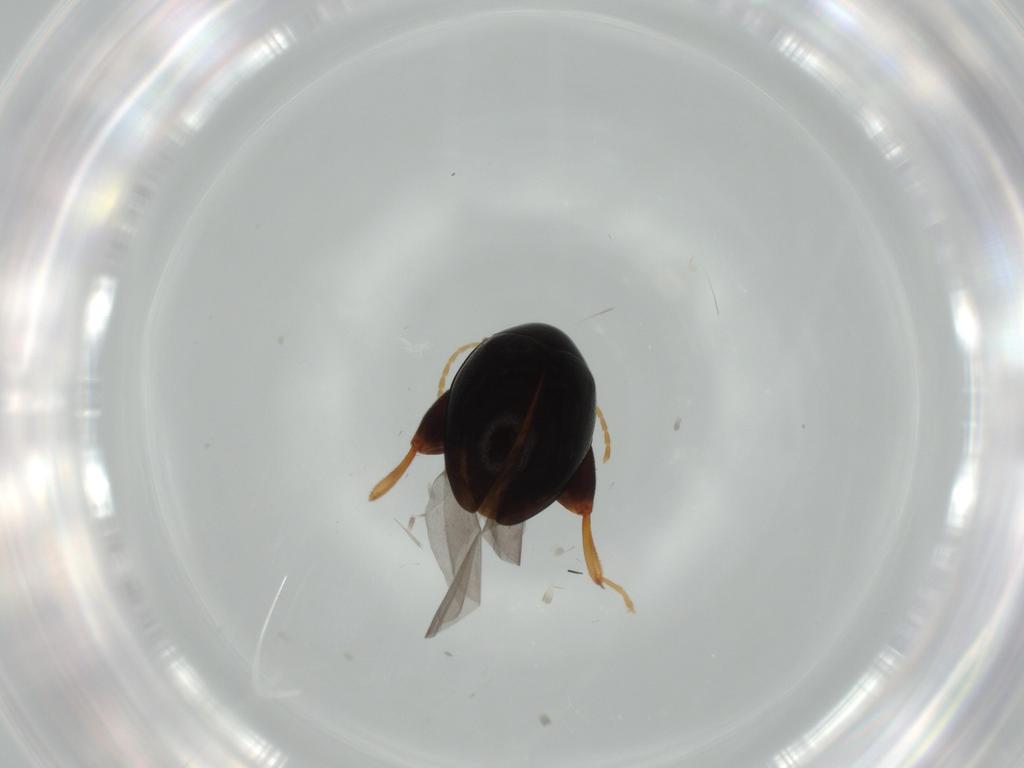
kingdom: Animalia
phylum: Arthropoda
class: Insecta
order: Coleoptera
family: Chrysomelidae
